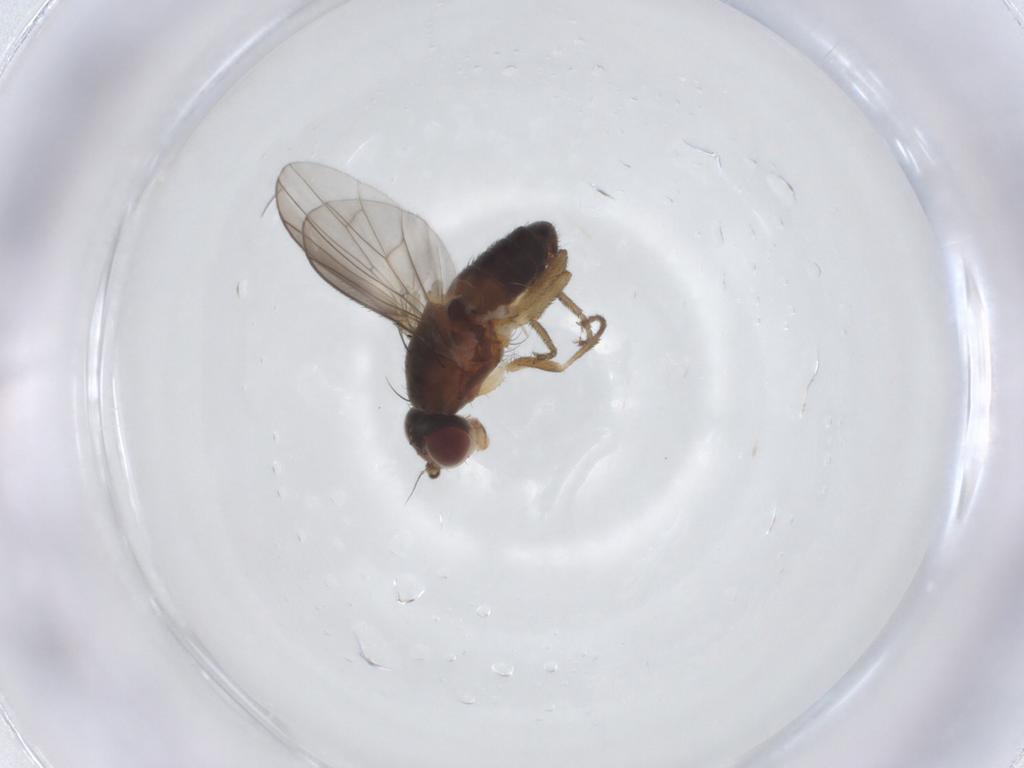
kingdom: Animalia
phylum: Arthropoda
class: Insecta
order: Diptera
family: Heleomyzidae
